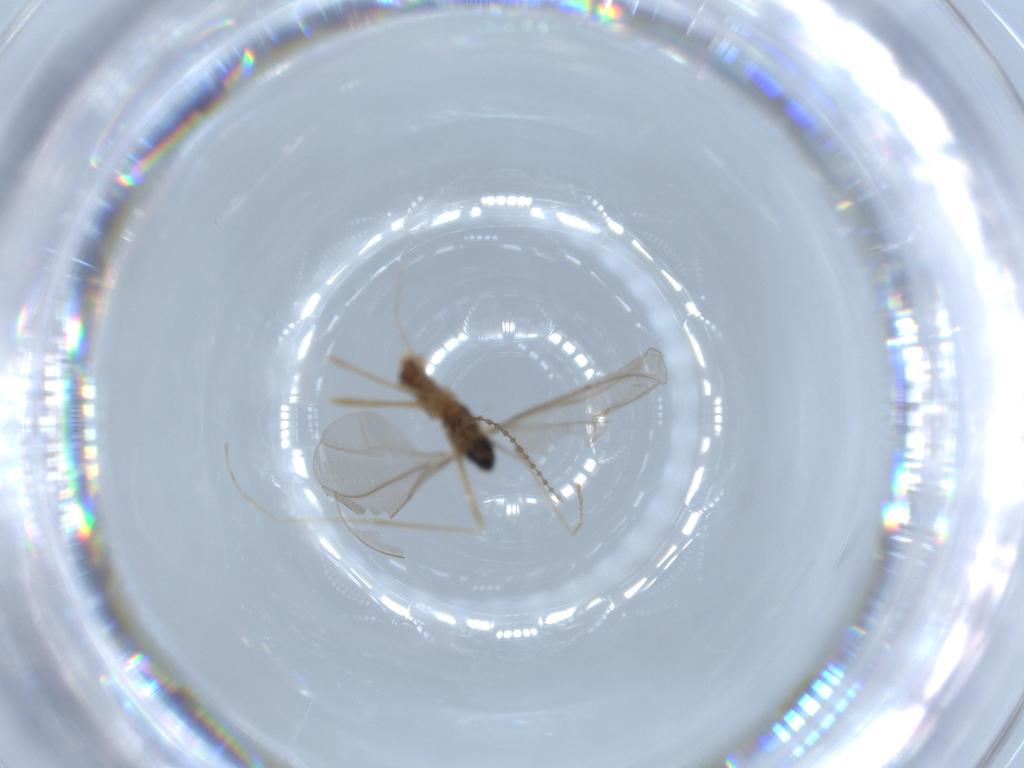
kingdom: Animalia
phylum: Arthropoda
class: Insecta
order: Diptera
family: Cecidomyiidae
